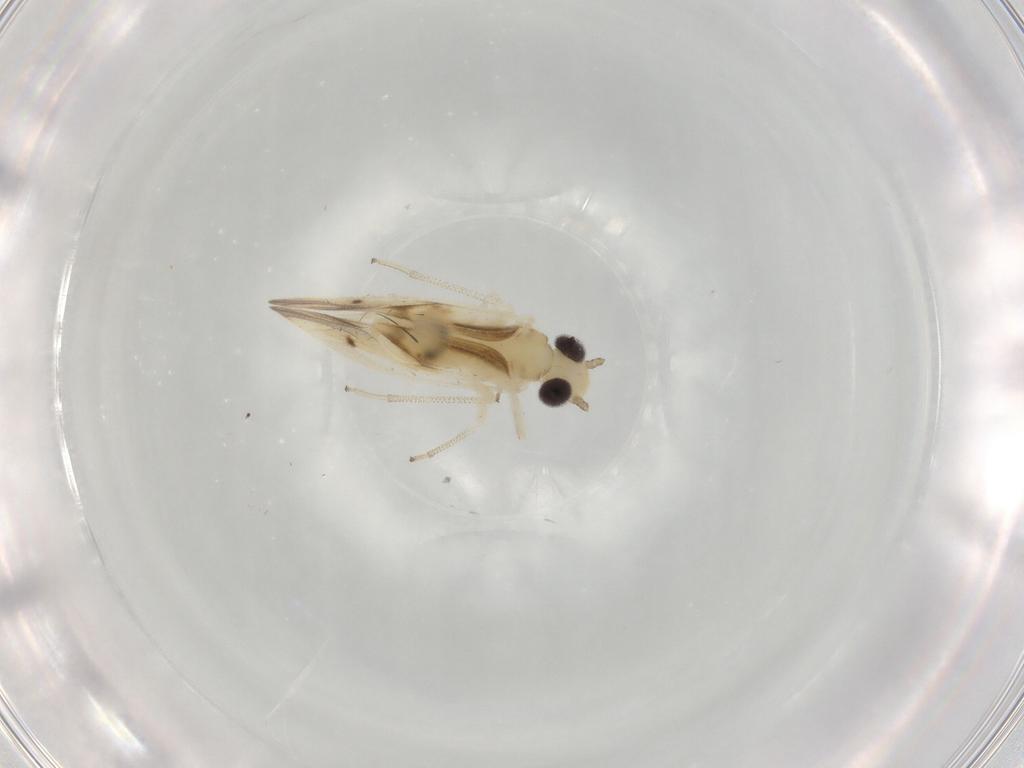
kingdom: Animalia
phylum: Arthropoda
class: Insecta
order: Psocodea
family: Caeciliusidae
